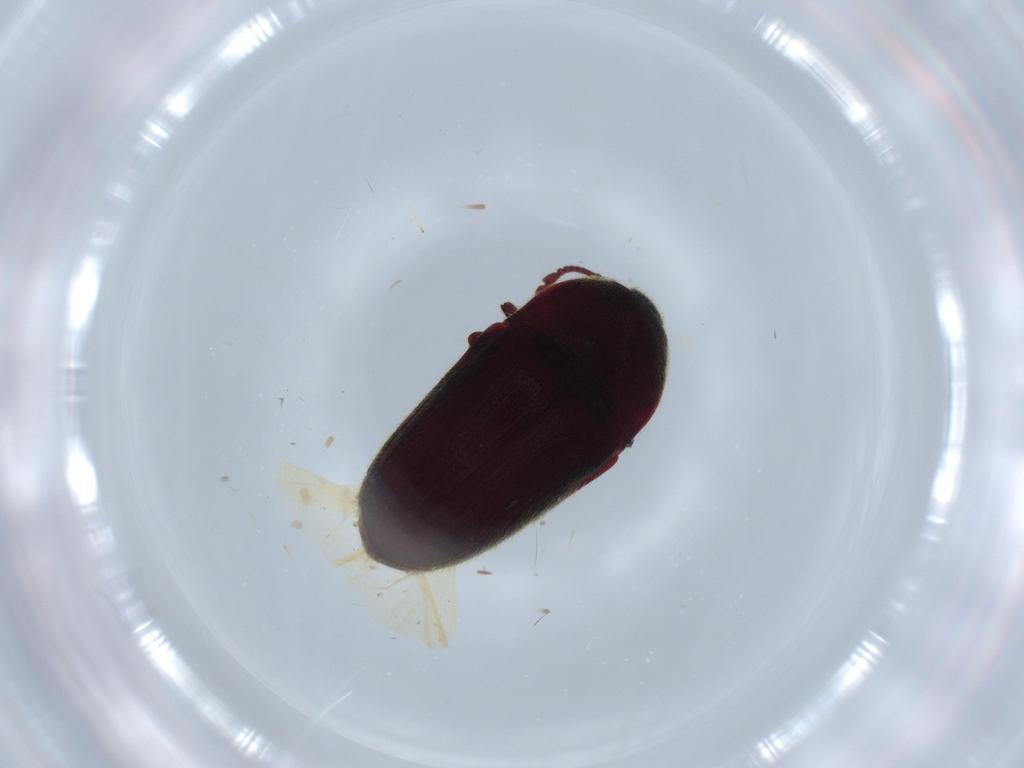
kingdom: Animalia
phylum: Arthropoda
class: Insecta
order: Coleoptera
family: Throscidae
